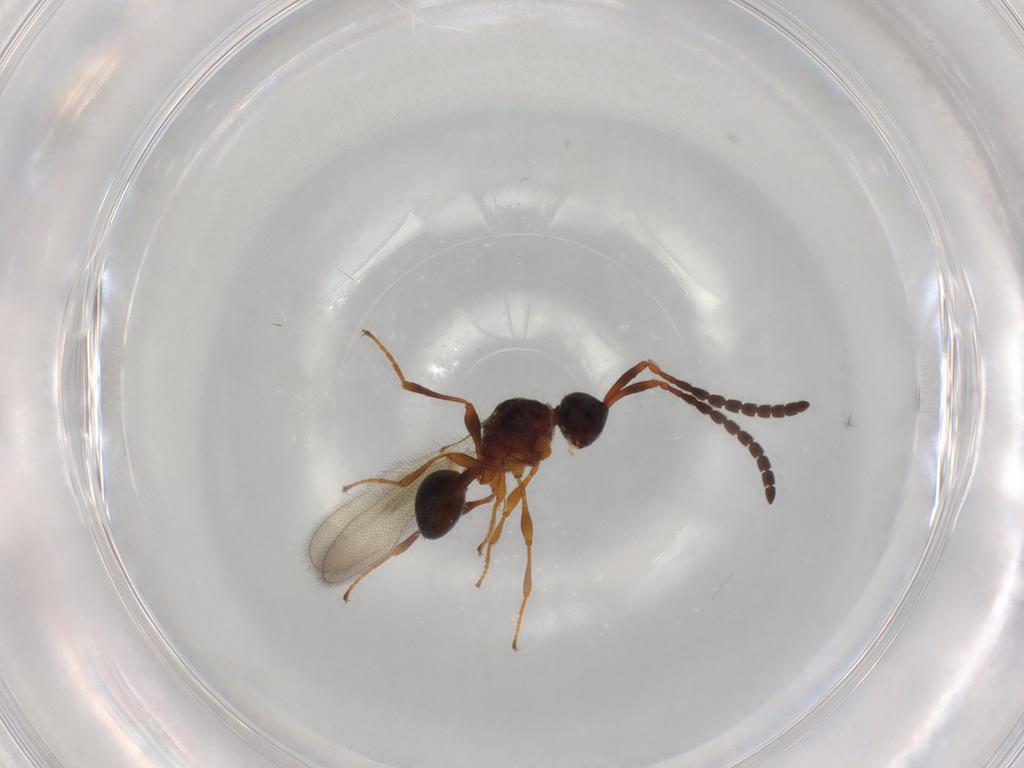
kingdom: Animalia
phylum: Arthropoda
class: Insecta
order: Hymenoptera
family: Diapriidae
